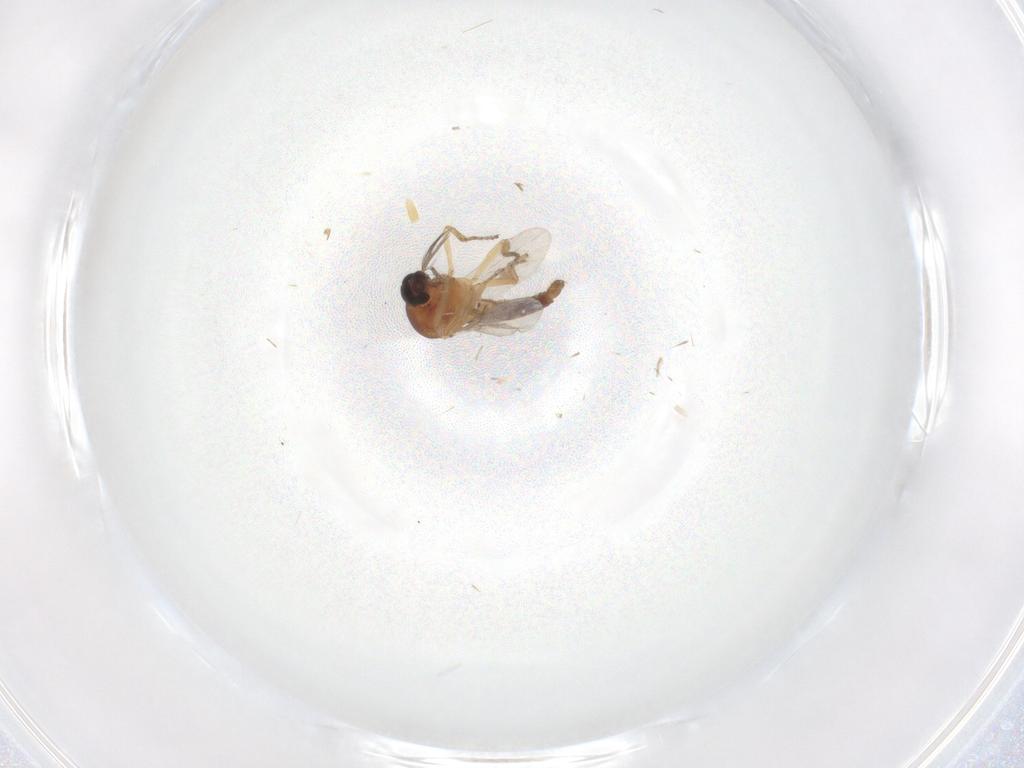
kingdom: Animalia
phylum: Arthropoda
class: Insecta
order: Diptera
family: Ceratopogonidae
